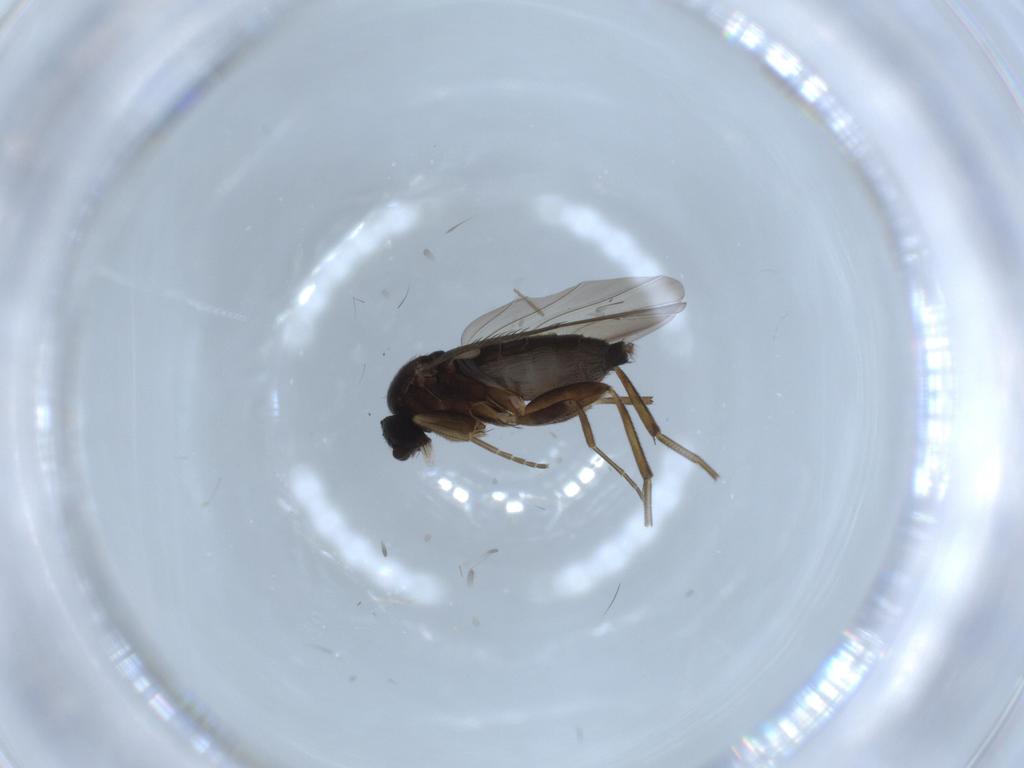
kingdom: Animalia
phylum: Arthropoda
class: Insecta
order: Diptera
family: Phoridae
